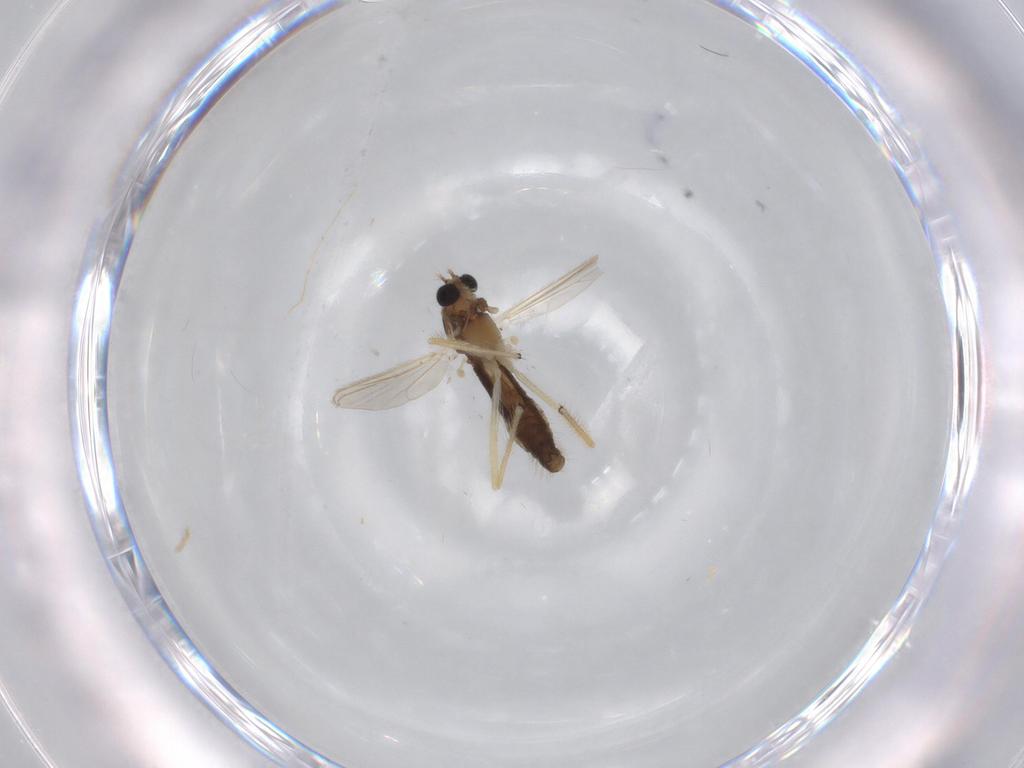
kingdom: Animalia
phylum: Arthropoda
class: Insecta
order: Diptera
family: Chironomidae
